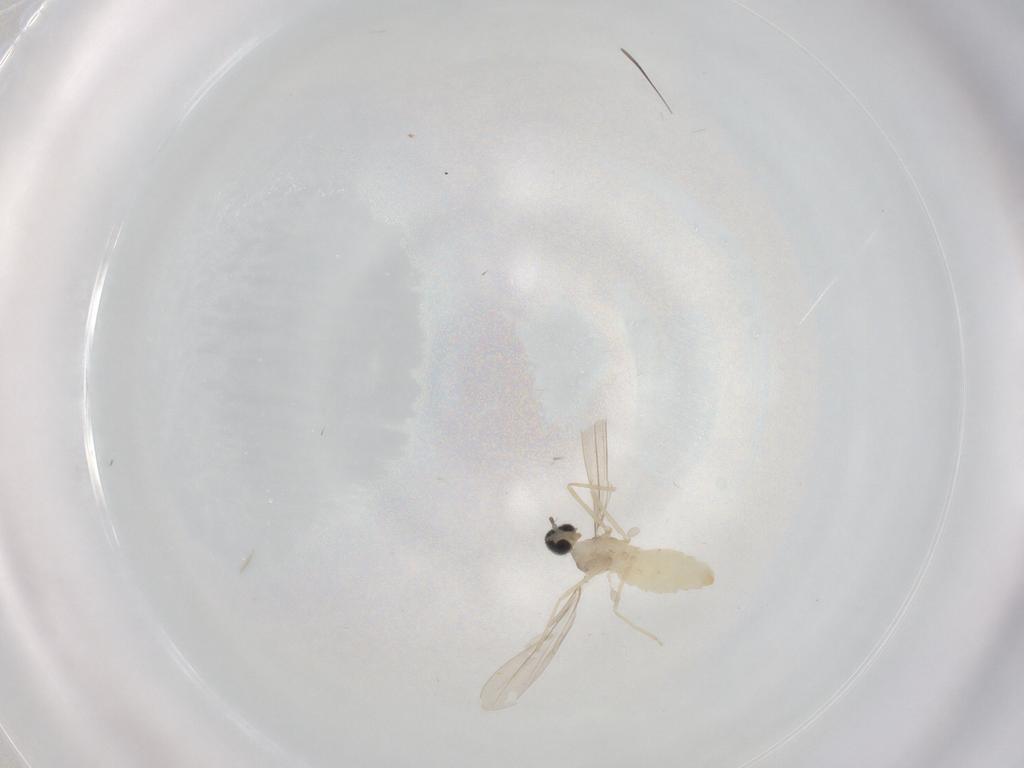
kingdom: Animalia
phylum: Arthropoda
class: Insecta
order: Diptera
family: Cecidomyiidae
